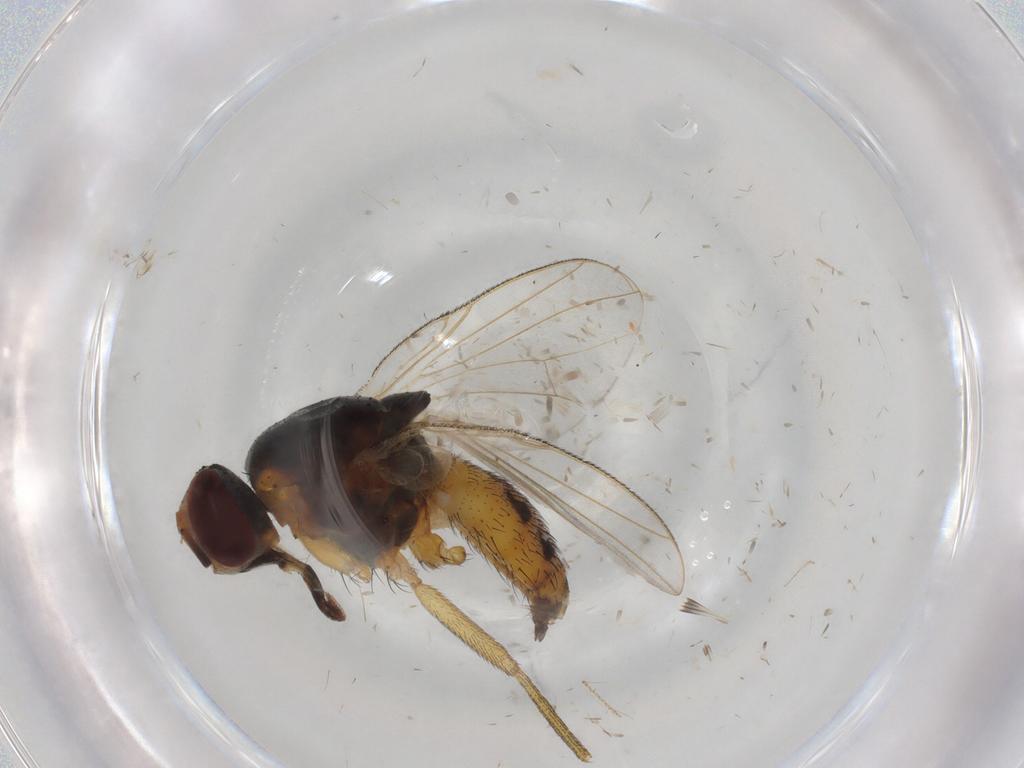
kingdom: Animalia
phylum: Arthropoda
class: Insecta
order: Diptera
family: Muscidae
